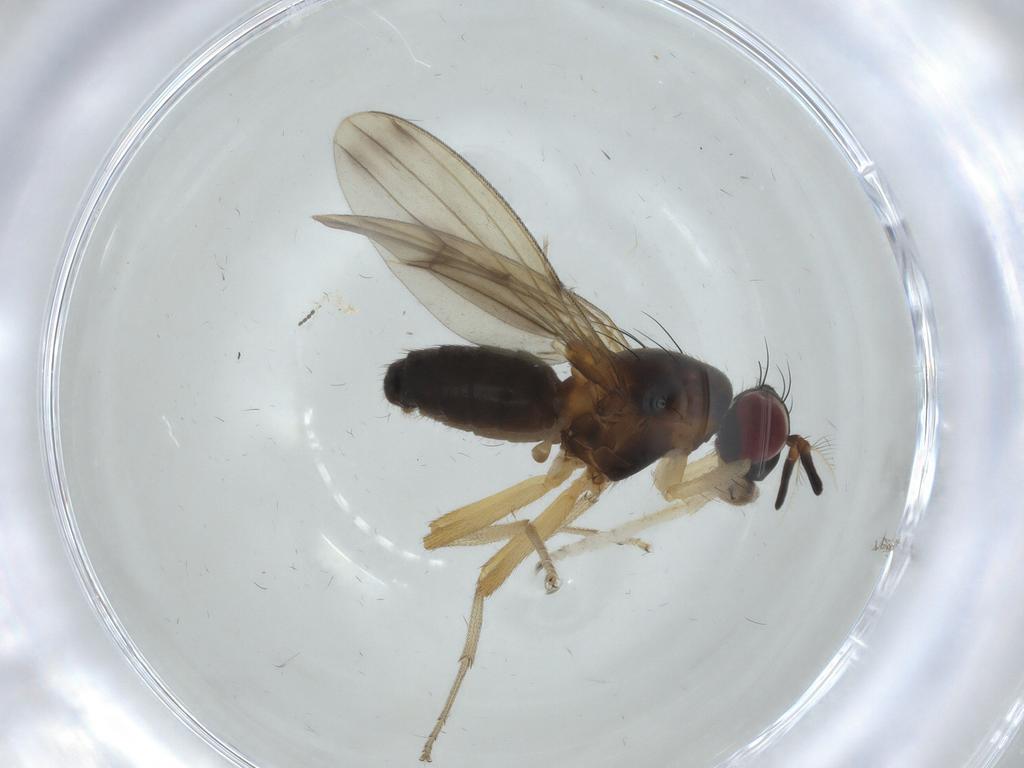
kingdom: Animalia
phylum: Arthropoda
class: Insecta
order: Diptera
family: Lauxaniidae
